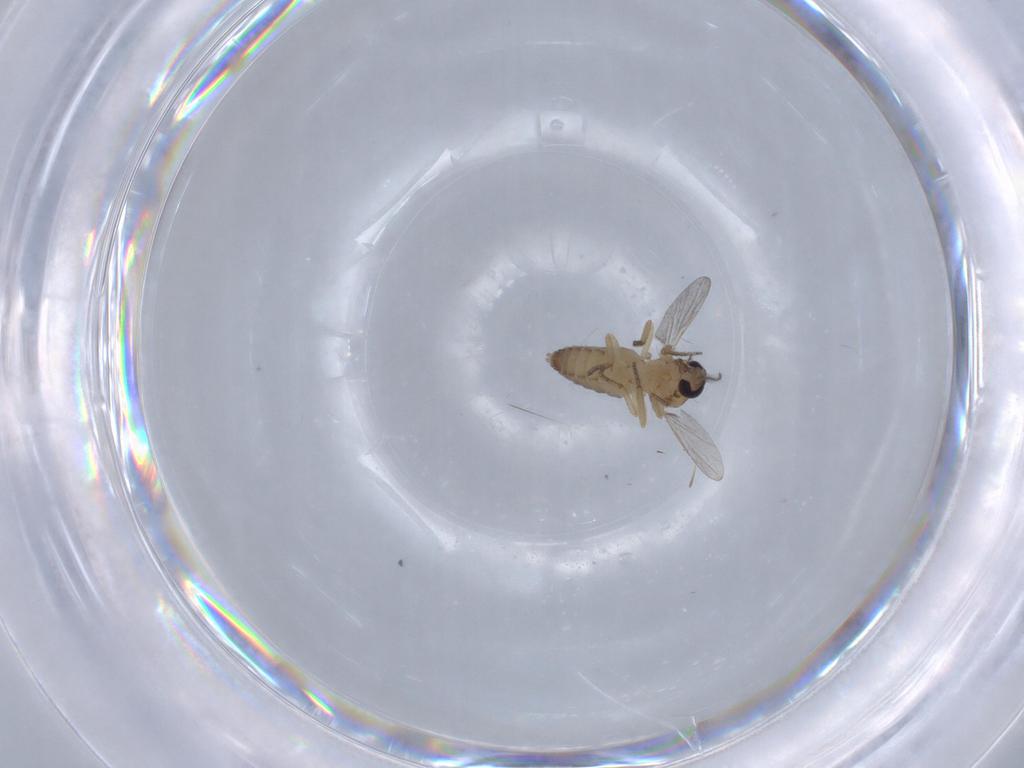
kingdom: Animalia
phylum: Arthropoda
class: Insecta
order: Diptera
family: Ceratopogonidae
